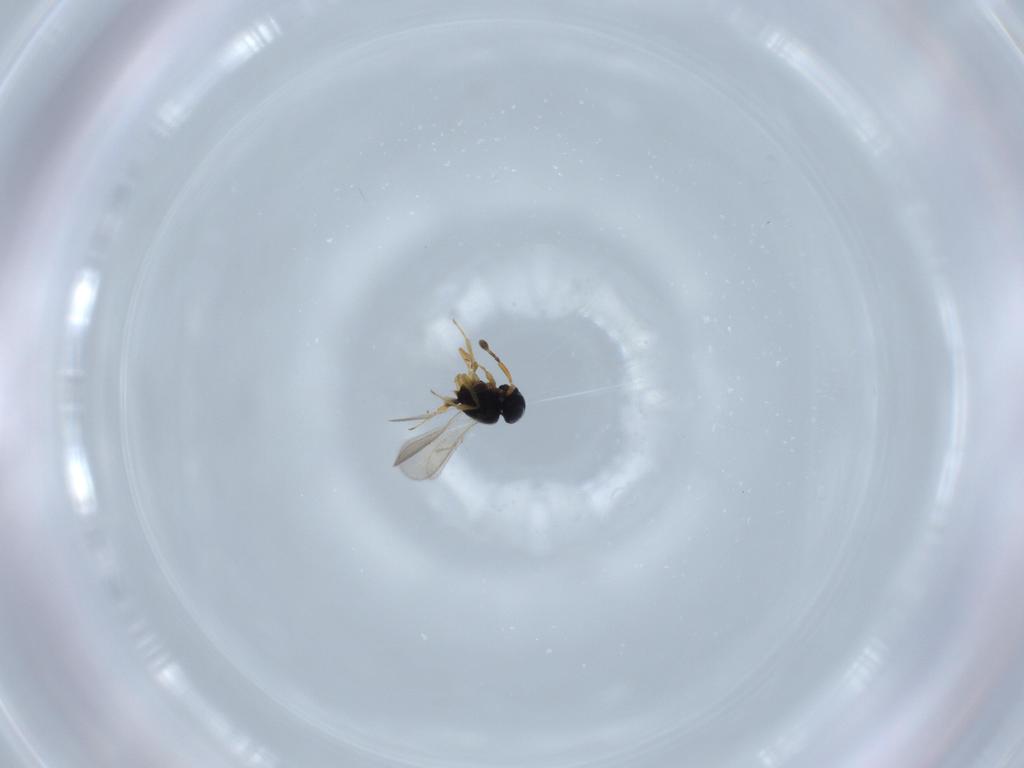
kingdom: Animalia
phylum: Arthropoda
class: Insecta
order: Hymenoptera
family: Scelionidae
